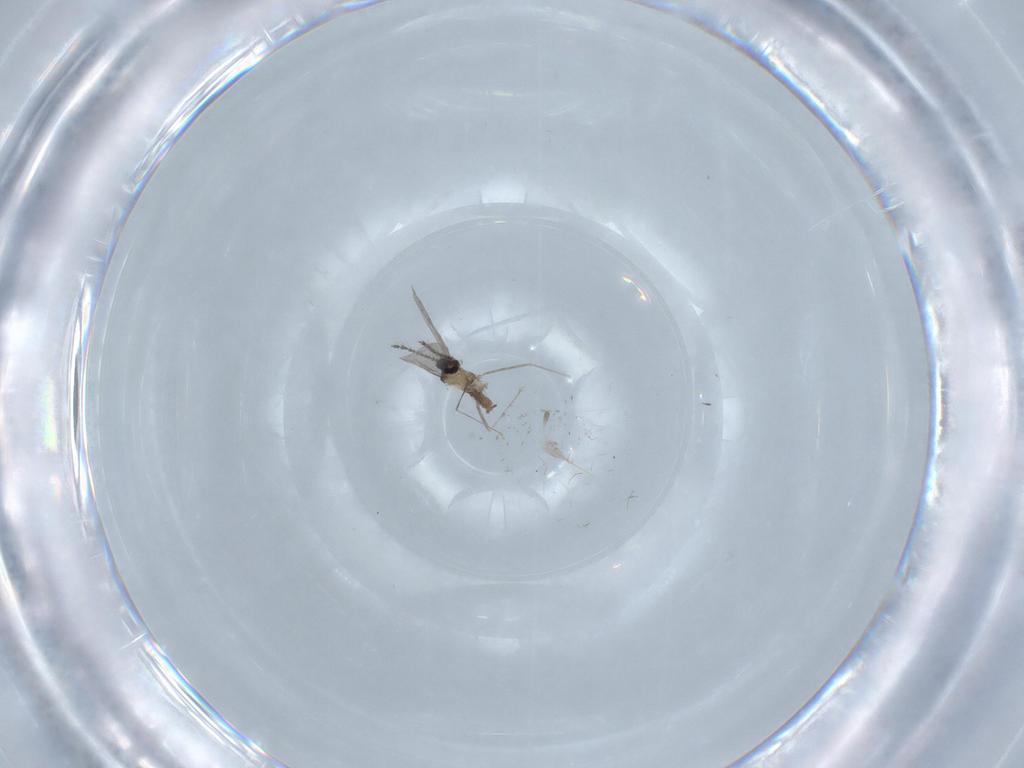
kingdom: Animalia
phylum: Arthropoda
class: Insecta
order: Diptera
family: Cecidomyiidae
